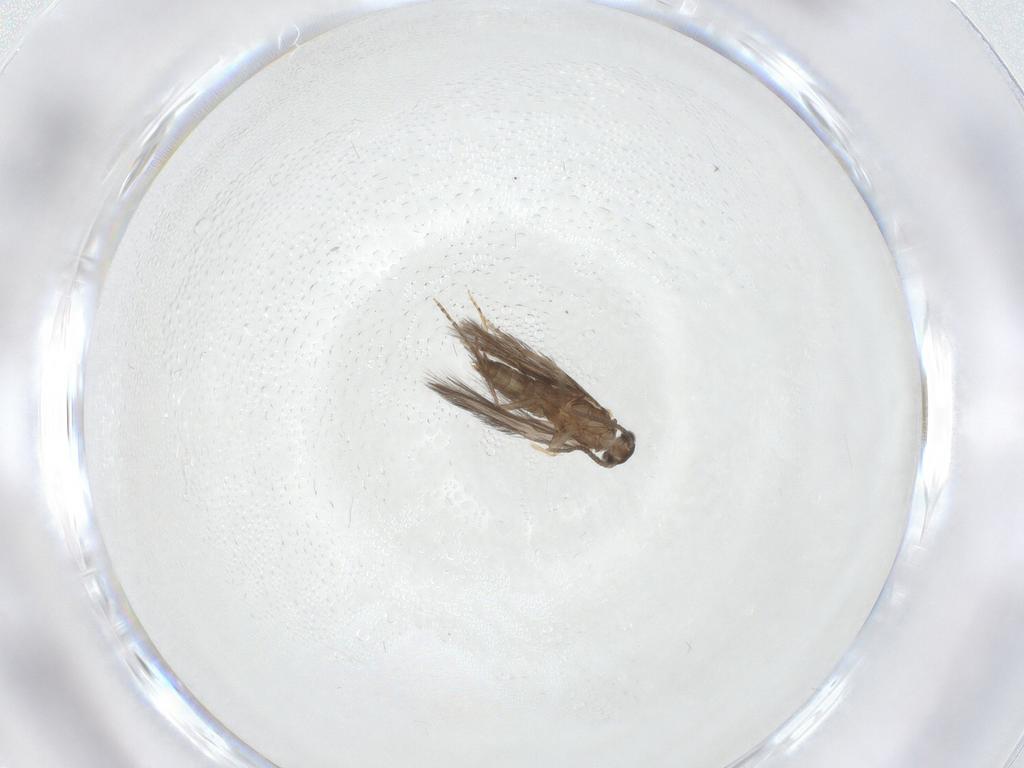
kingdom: Animalia
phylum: Arthropoda
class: Insecta
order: Trichoptera
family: Hydroptilidae
